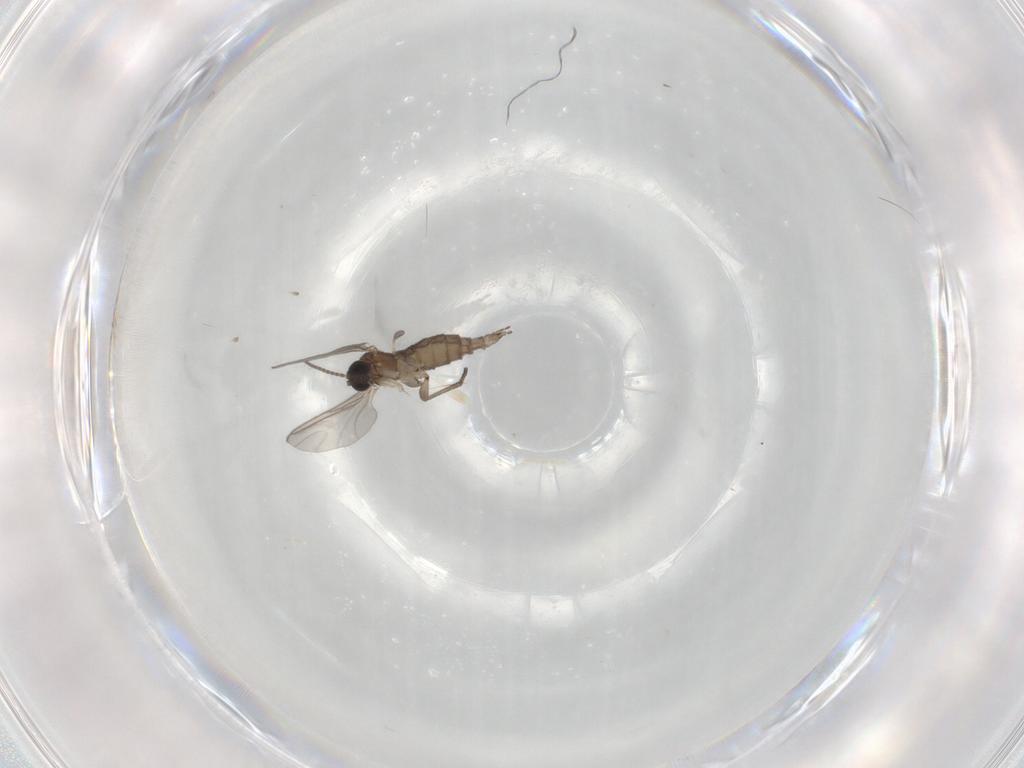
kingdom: Animalia
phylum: Arthropoda
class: Insecta
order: Diptera
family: Sciaridae
